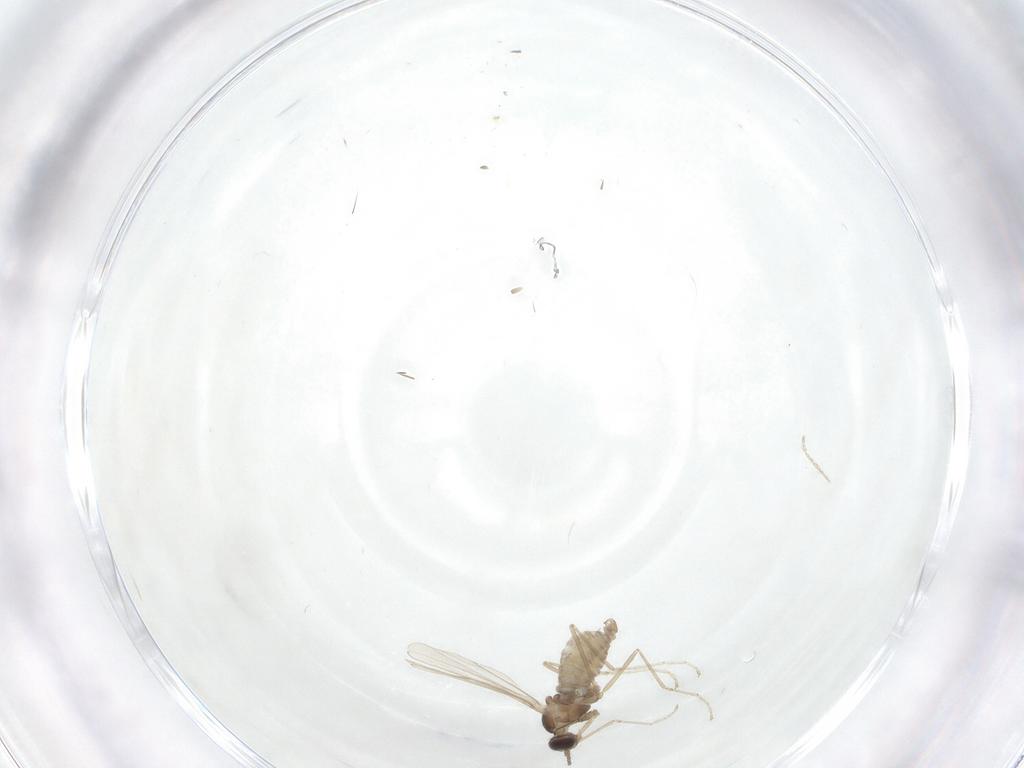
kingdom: Animalia
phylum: Arthropoda
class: Insecta
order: Diptera
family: Cecidomyiidae
